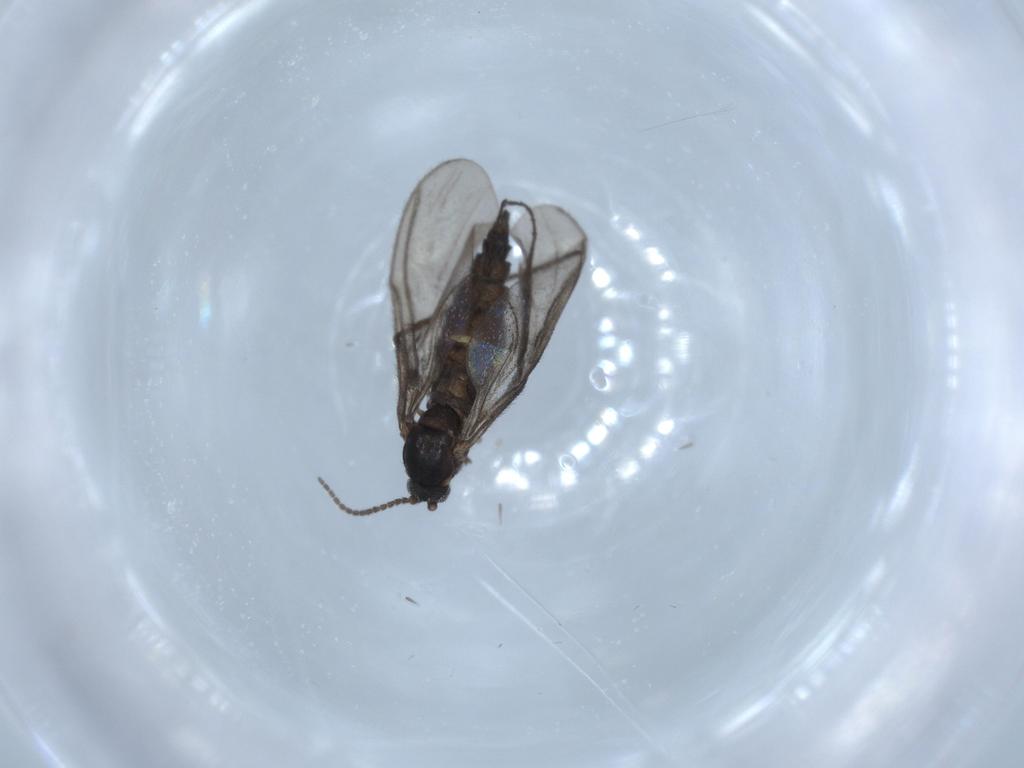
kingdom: Animalia
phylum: Arthropoda
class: Insecta
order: Diptera
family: Sciaridae
